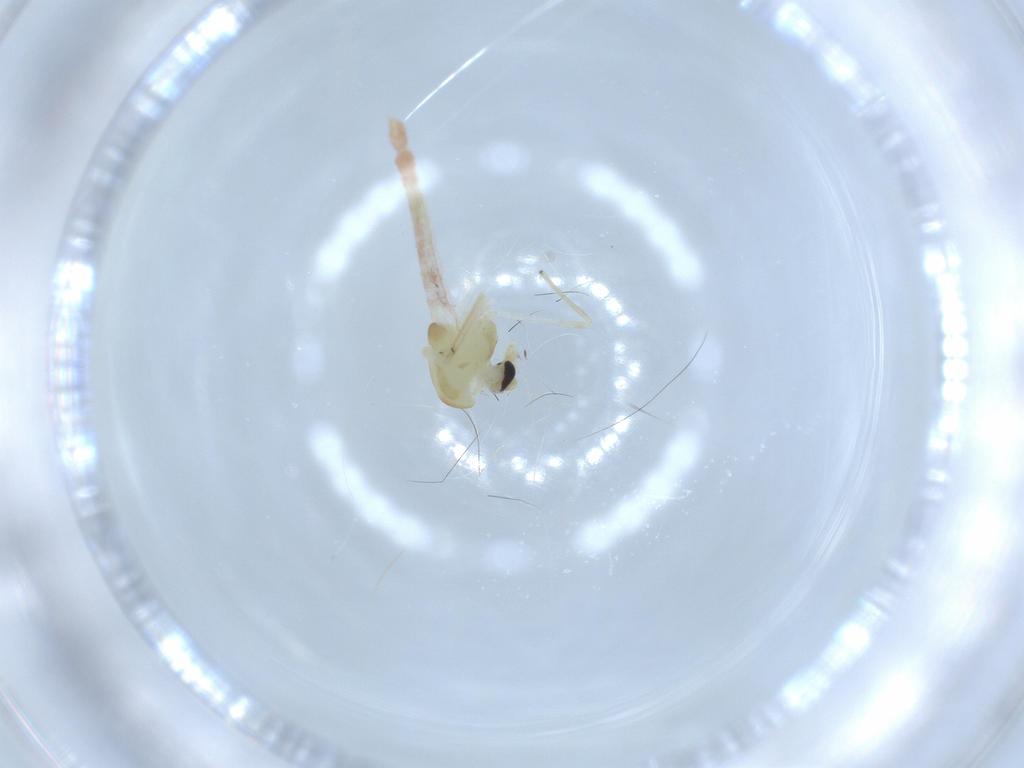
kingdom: Animalia
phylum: Arthropoda
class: Insecta
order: Diptera
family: Chironomidae
